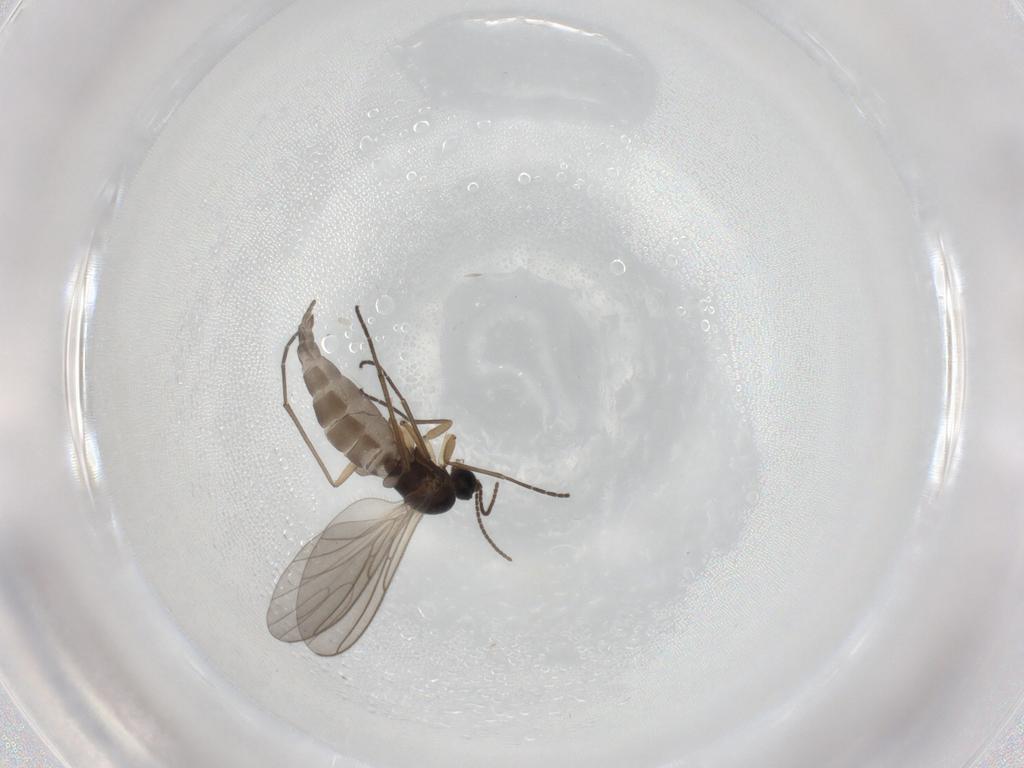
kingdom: Animalia
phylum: Arthropoda
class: Insecta
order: Diptera
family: Sciaridae
